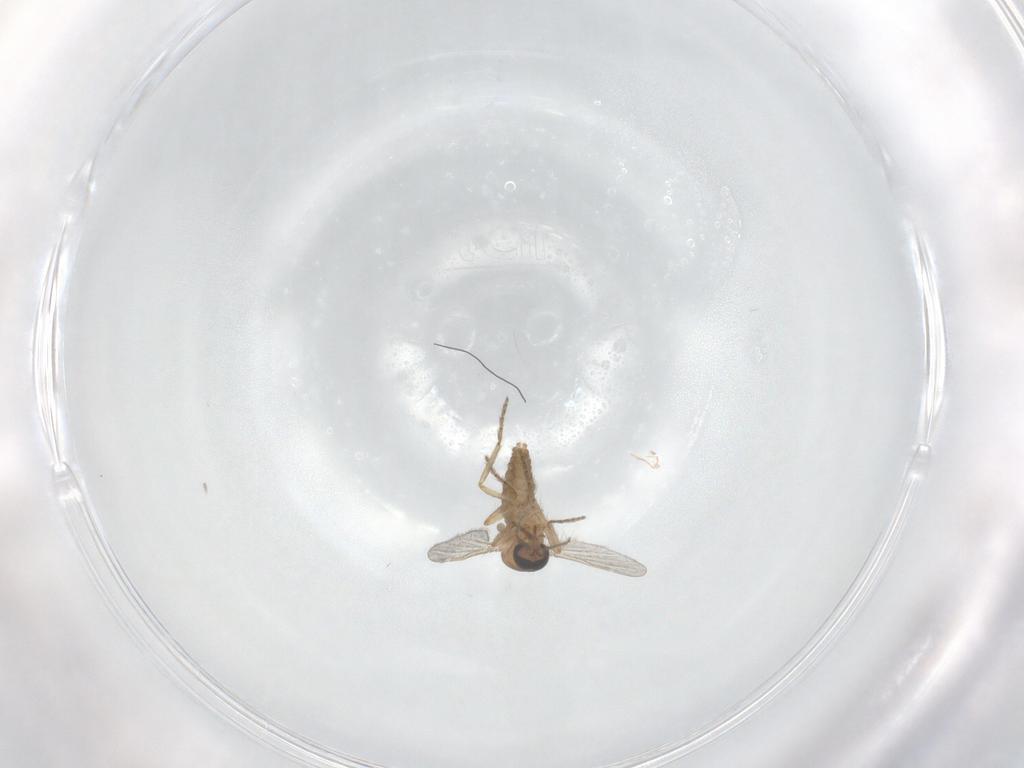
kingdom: Animalia
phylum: Arthropoda
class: Insecta
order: Diptera
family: Ceratopogonidae
